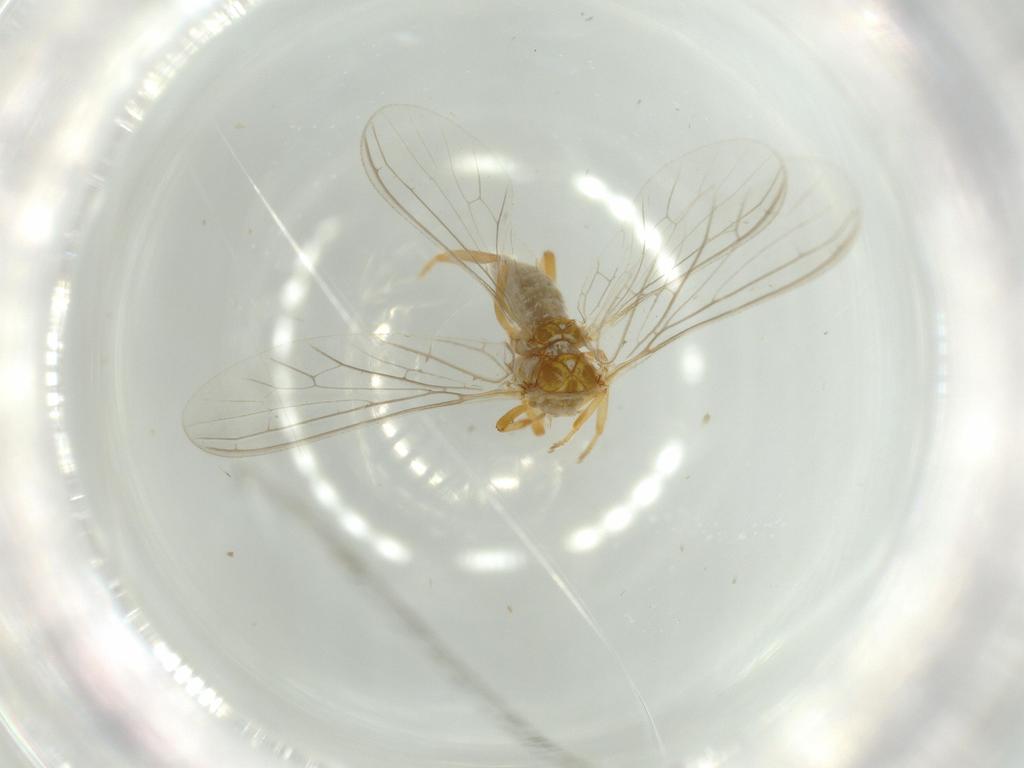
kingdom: Animalia
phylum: Arthropoda
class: Insecta
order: Neuroptera
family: Coniopterygidae
